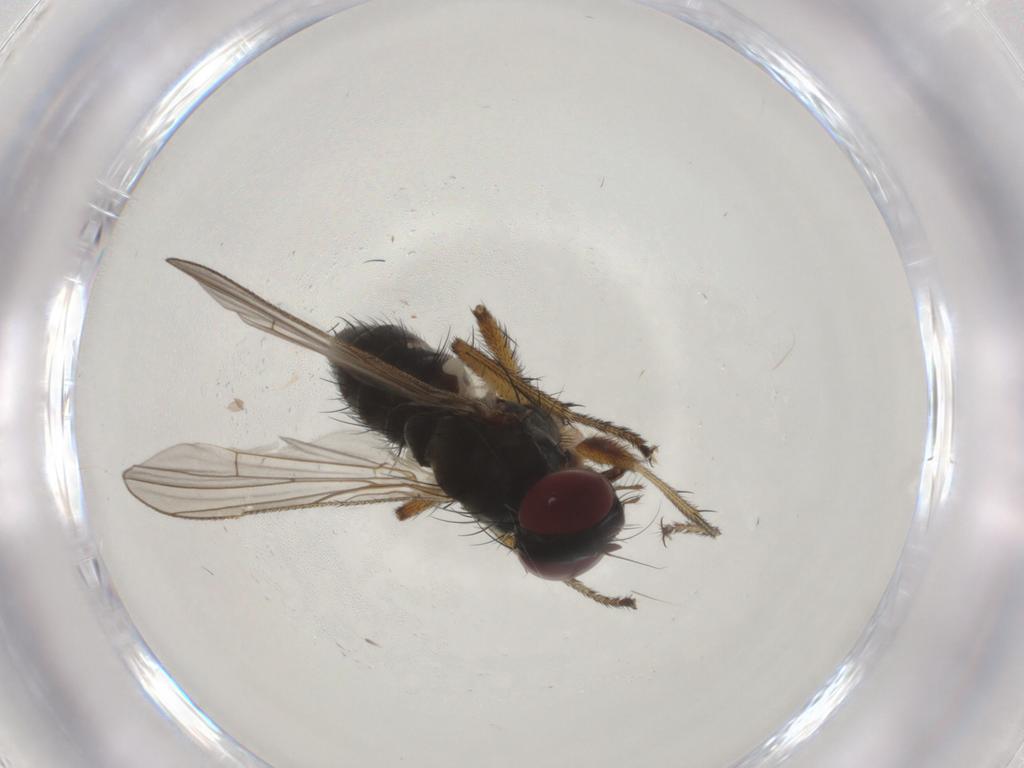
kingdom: Animalia
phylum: Arthropoda
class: Insecta
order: Diptera
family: Muscidae
